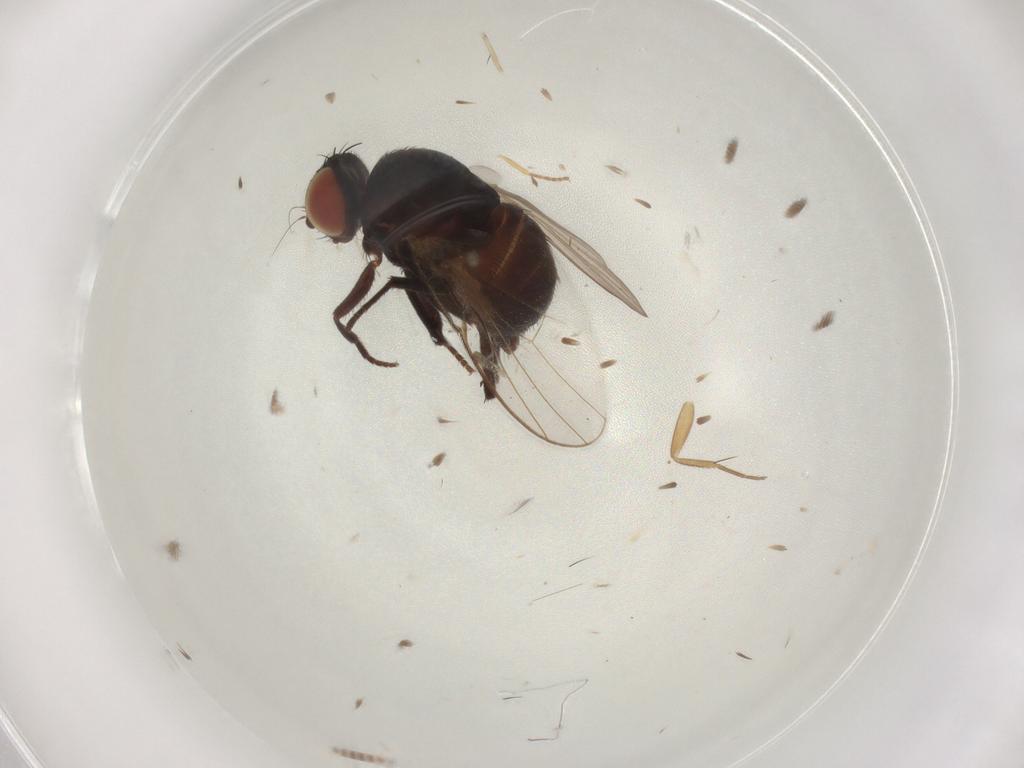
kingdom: Animalia
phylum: Arthropoda
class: Insecta
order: Diptera
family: Agromyzidae
